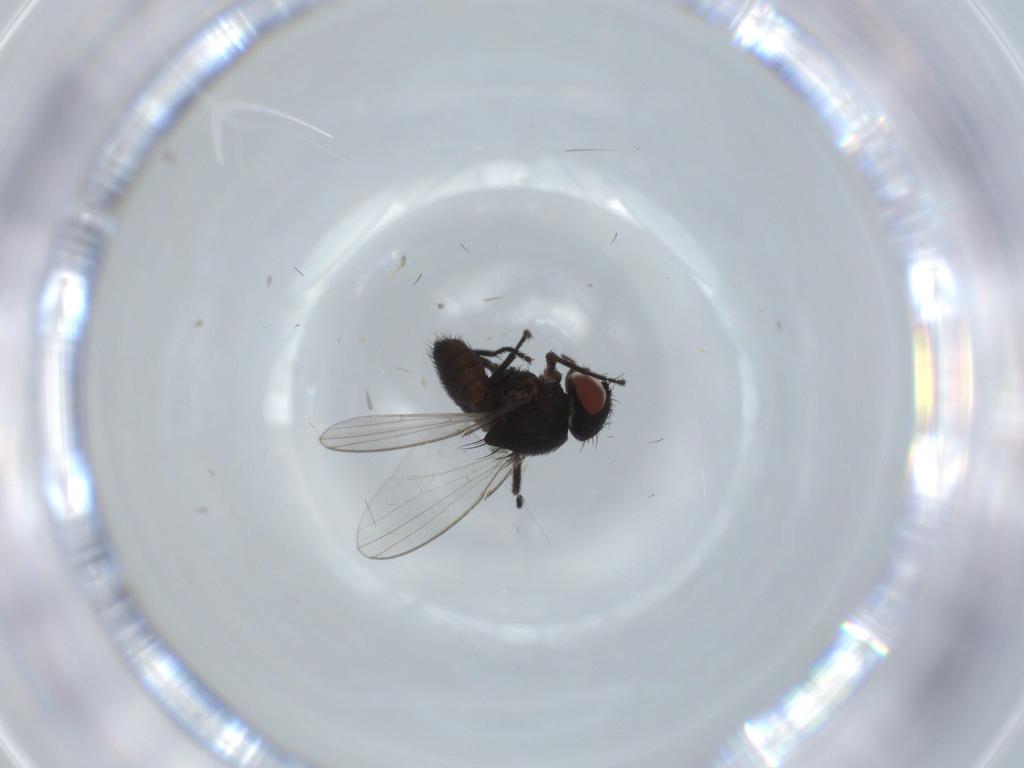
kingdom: Animalia
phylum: Arthropoda
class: Insecta
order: Diptera
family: Milichiidae
